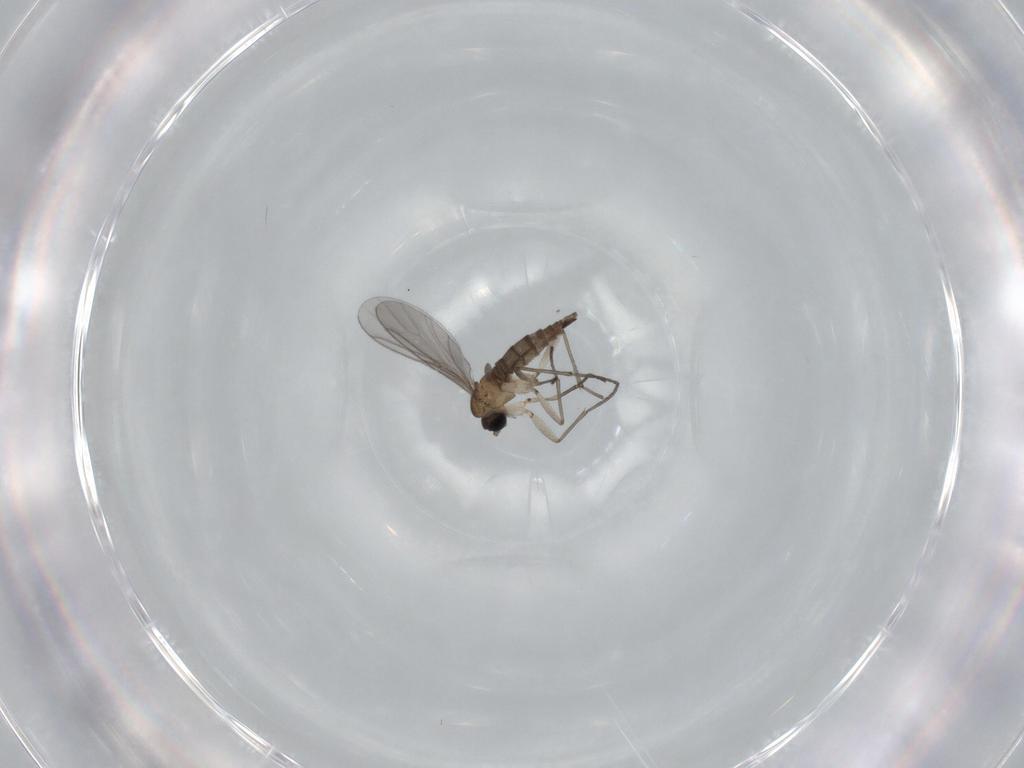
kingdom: Animalia
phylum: Arthropoda
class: Insecta
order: Diptera
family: Sciaridae
